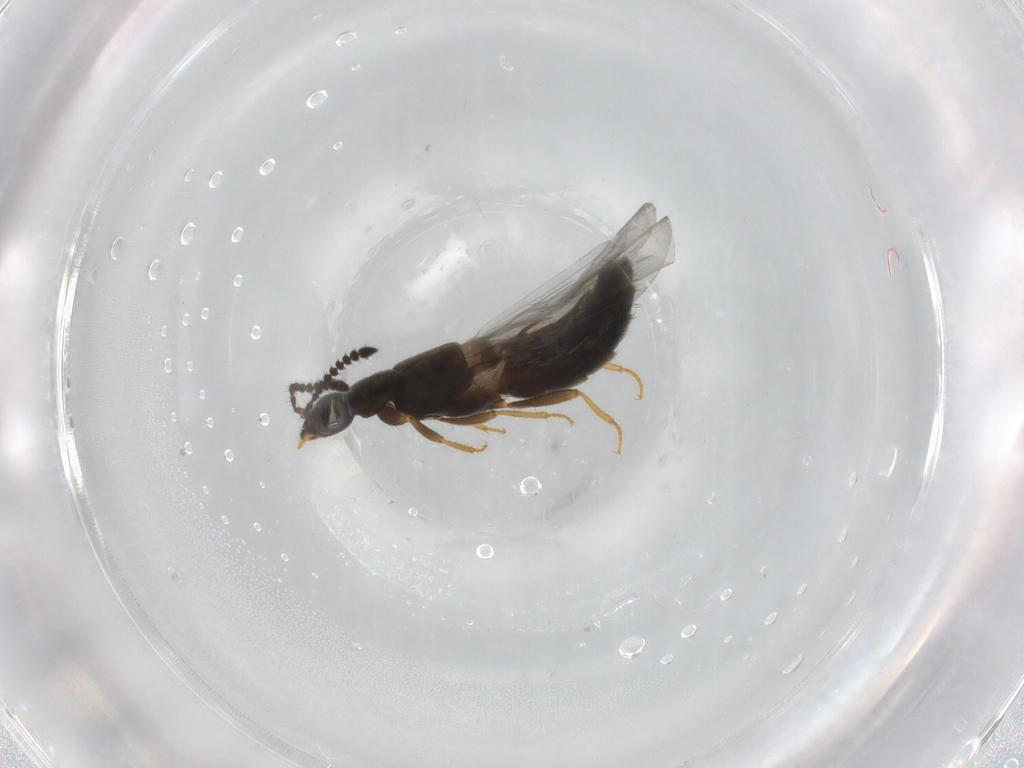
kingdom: Animalia
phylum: Arthropoda
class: Insecta
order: Coleoptera
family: Staphylinidae
